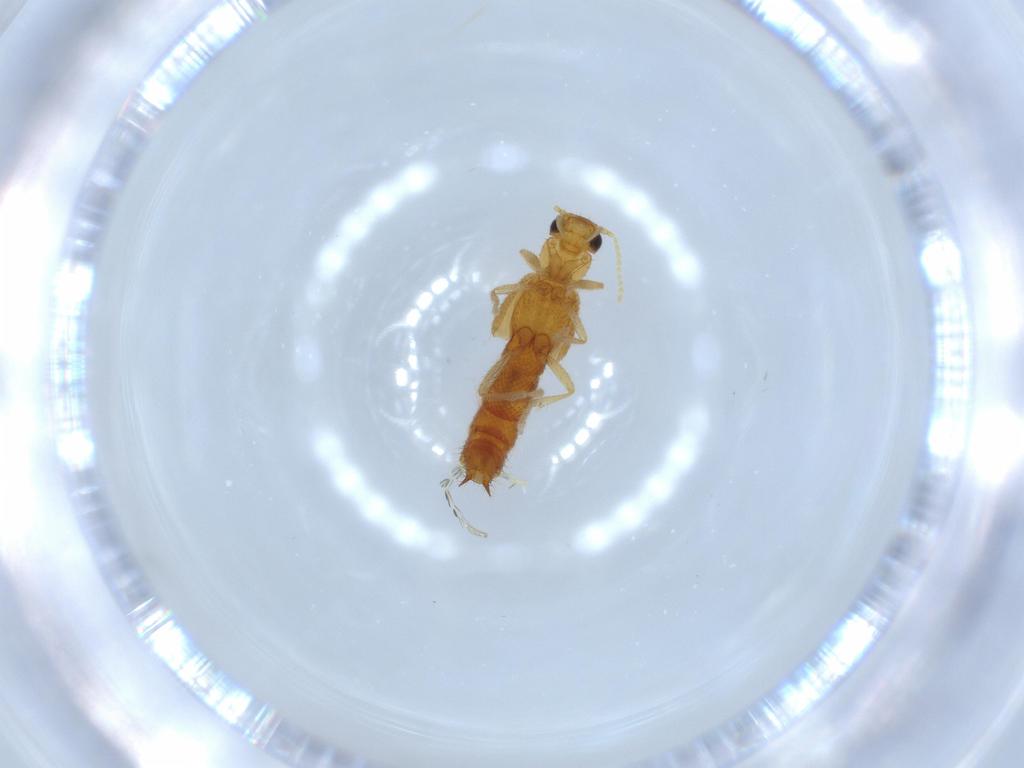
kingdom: Animalia
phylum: Arthropoda
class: Insecta
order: Coleoptera
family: Staphylinidae
